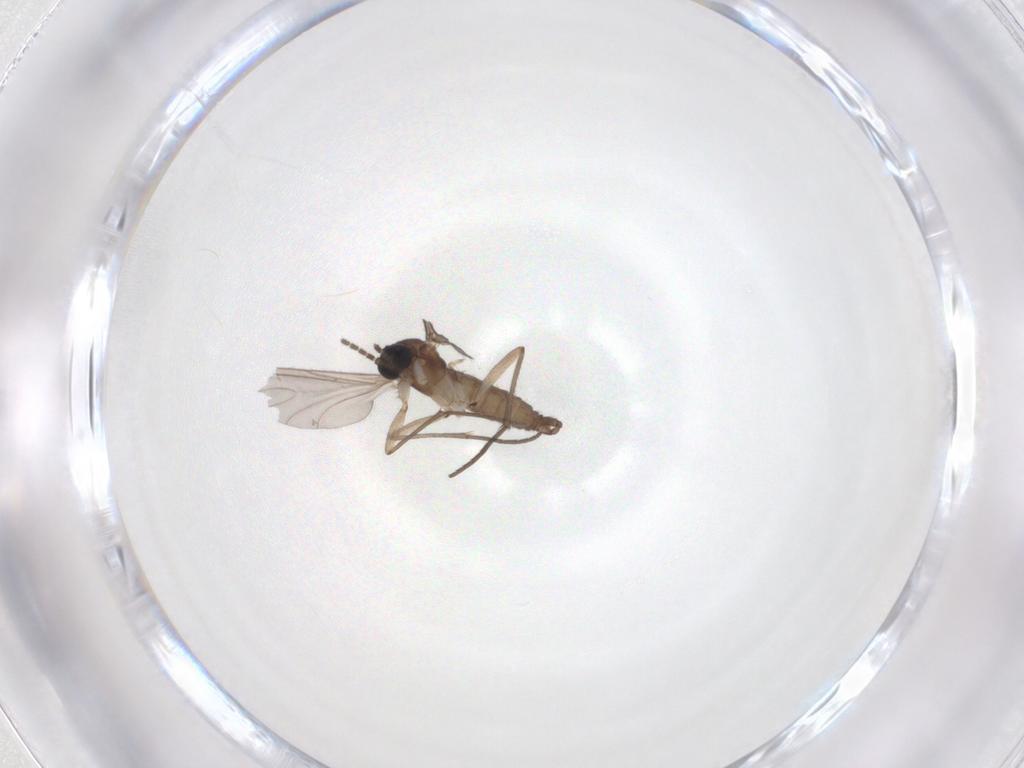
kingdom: Animalia
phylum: Arthropoda
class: Insecta
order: Diptera
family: Sciaridae
